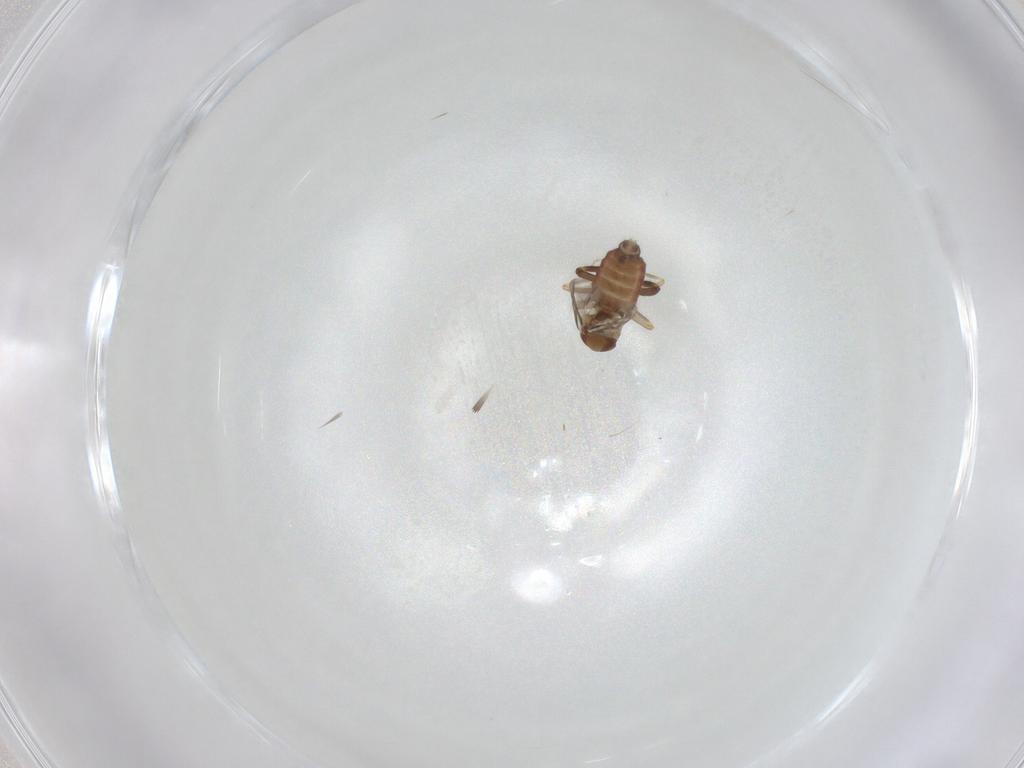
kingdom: Animalia
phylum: Arthropoda
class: Insecta
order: Diptera
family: Ceratopogonidae
